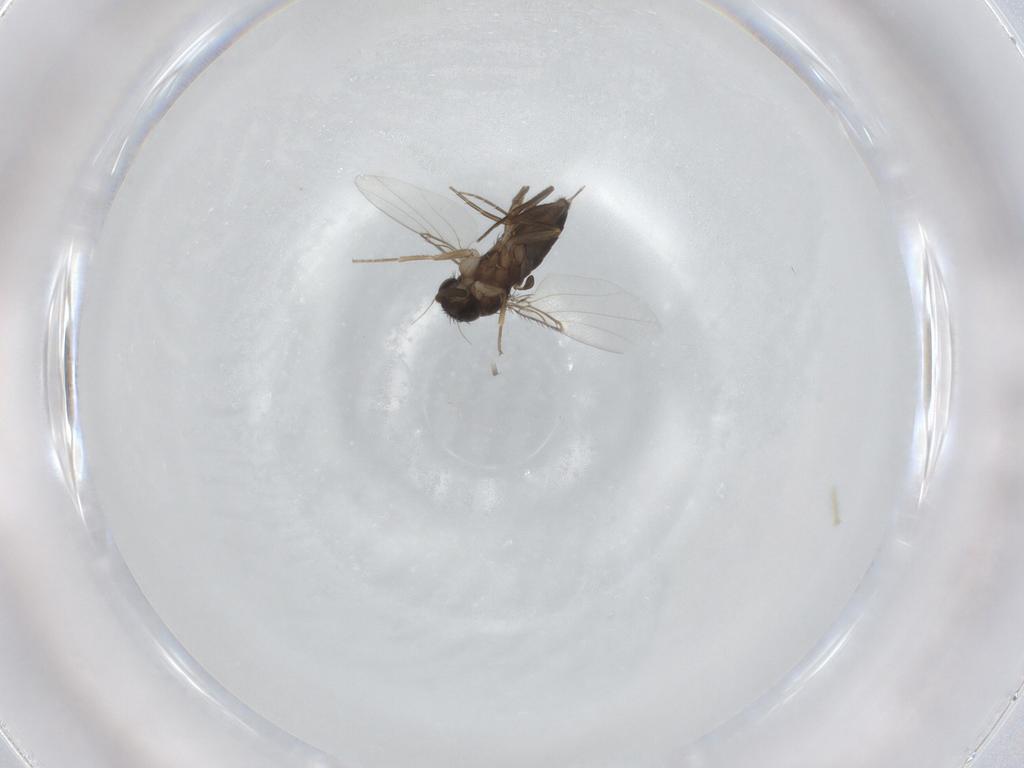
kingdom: Animalia
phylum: Arthropoda
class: Insecta
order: Diptera
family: Phoridae
